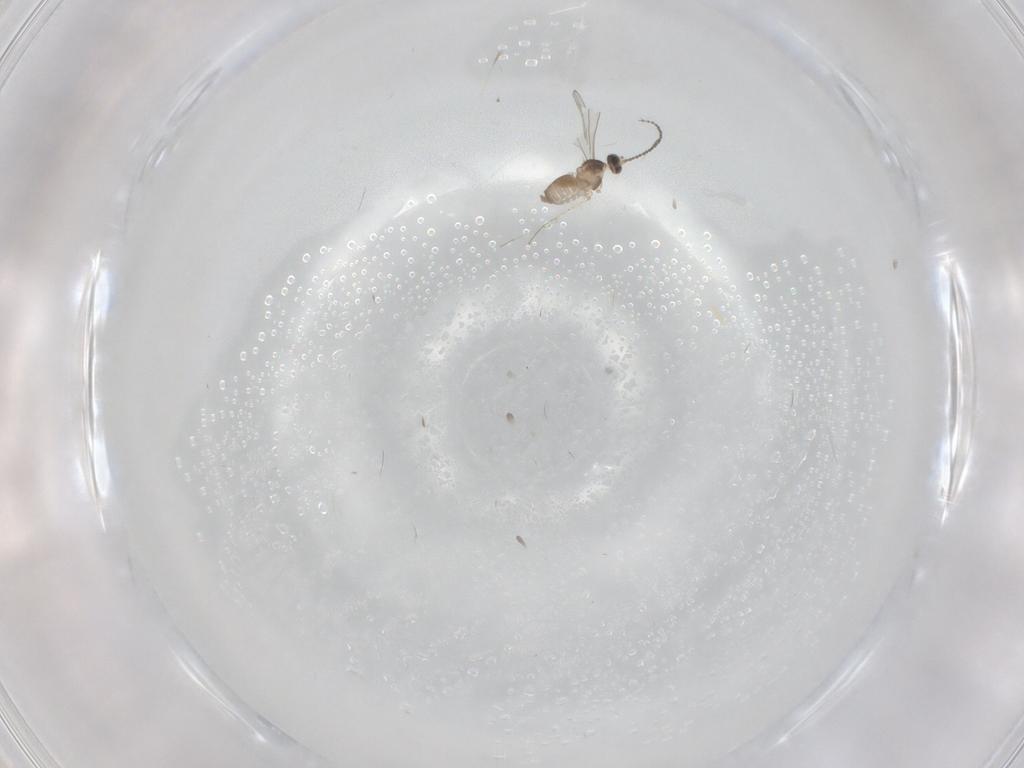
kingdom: Animalia
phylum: Arthropoda
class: Insecta
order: Diptera
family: Cecidomyiidae
